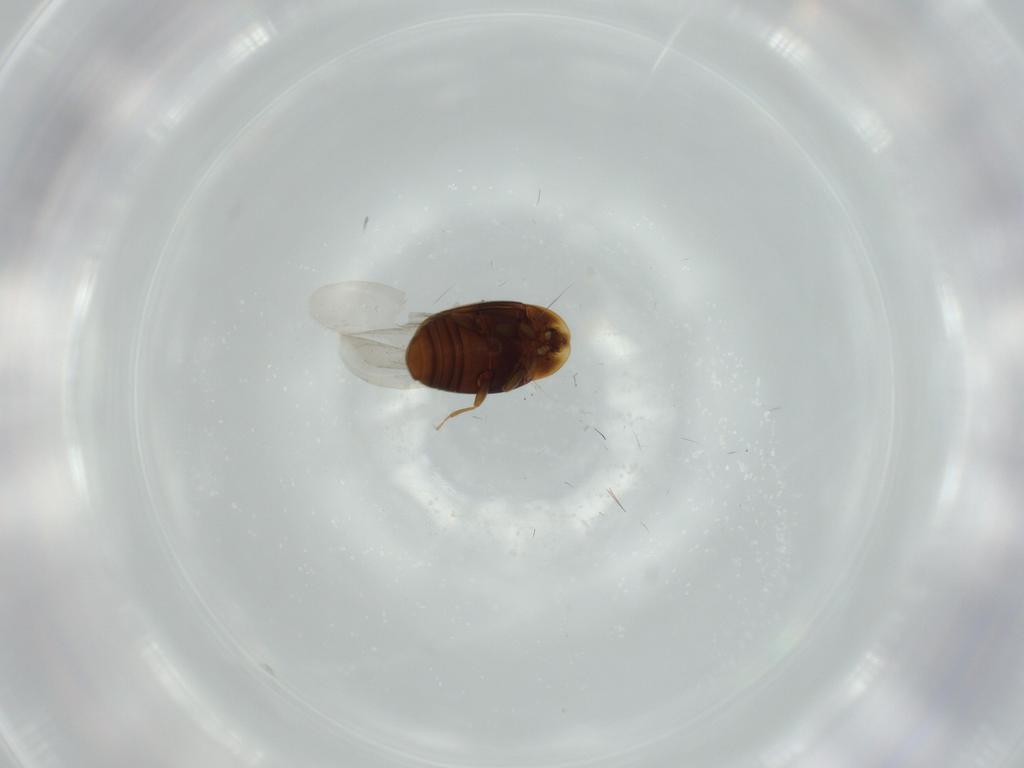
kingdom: Animalia
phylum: Arthropoda
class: Insecta
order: Coleoptera
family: Corylophidae
